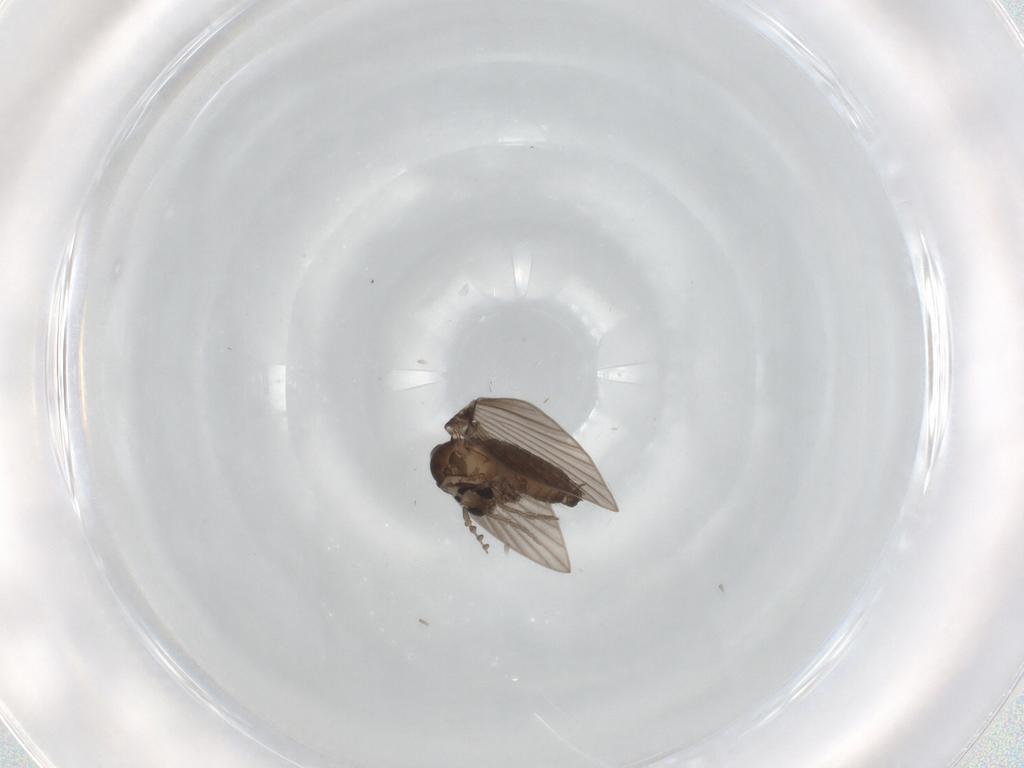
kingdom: Animalia
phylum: Arthropoda
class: Insecta
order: Diptera
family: Psychodidae
